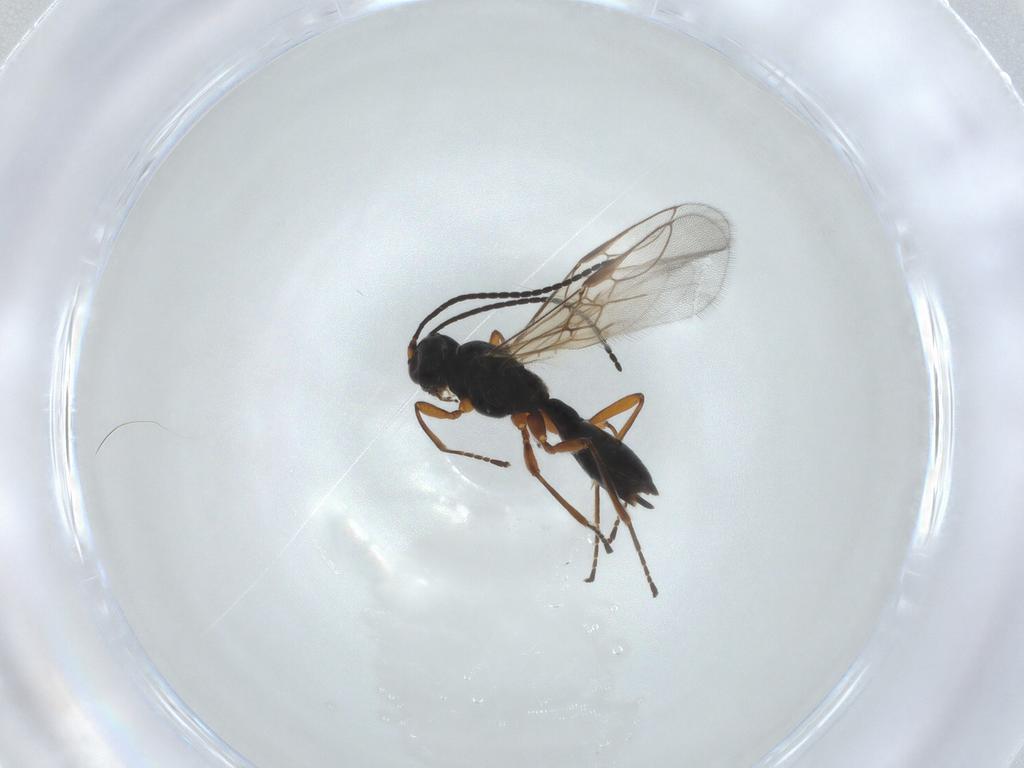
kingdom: Animalia
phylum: Arthropoda
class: Insecta
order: Hymenoptera
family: Braconidae
